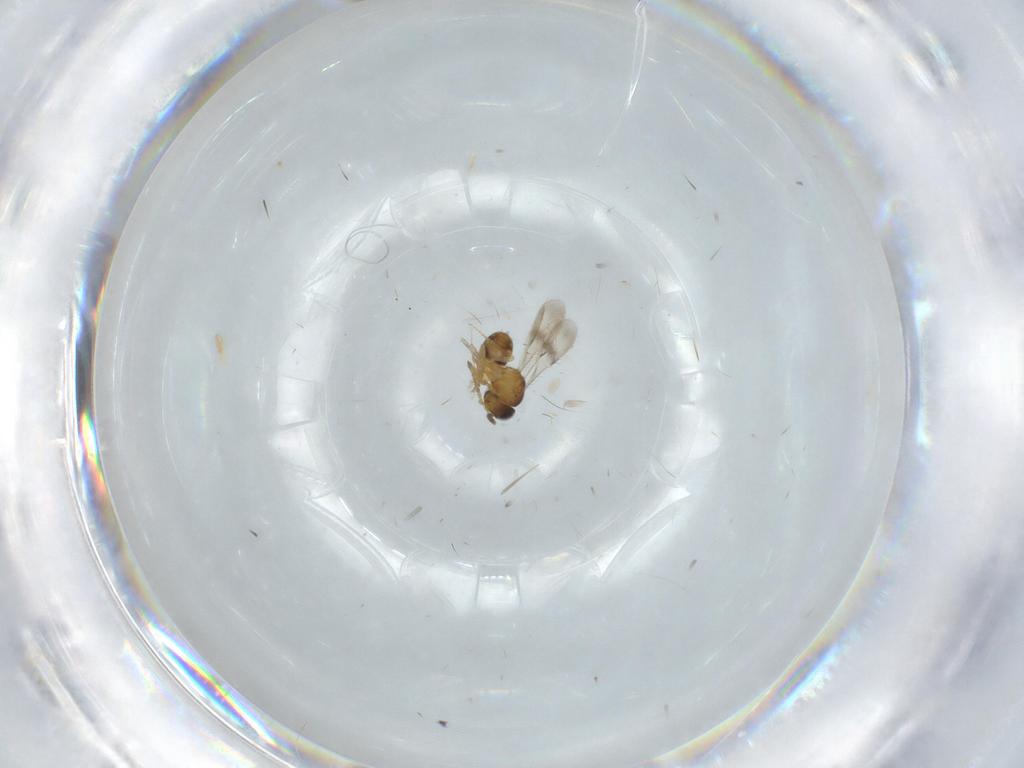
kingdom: Animalia
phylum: Arthropoda
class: Insecta
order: Hymenoptera
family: Scelionidae
